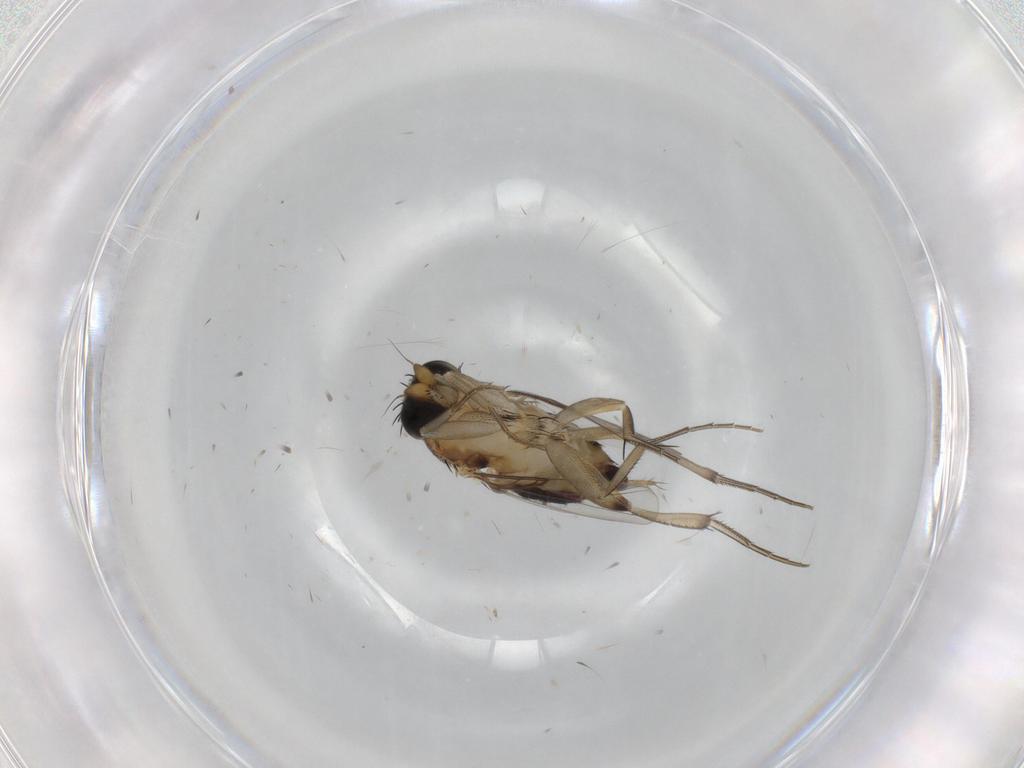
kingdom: Animalia
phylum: Arthropoda
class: Insecta
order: Diptera
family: Phoridae
